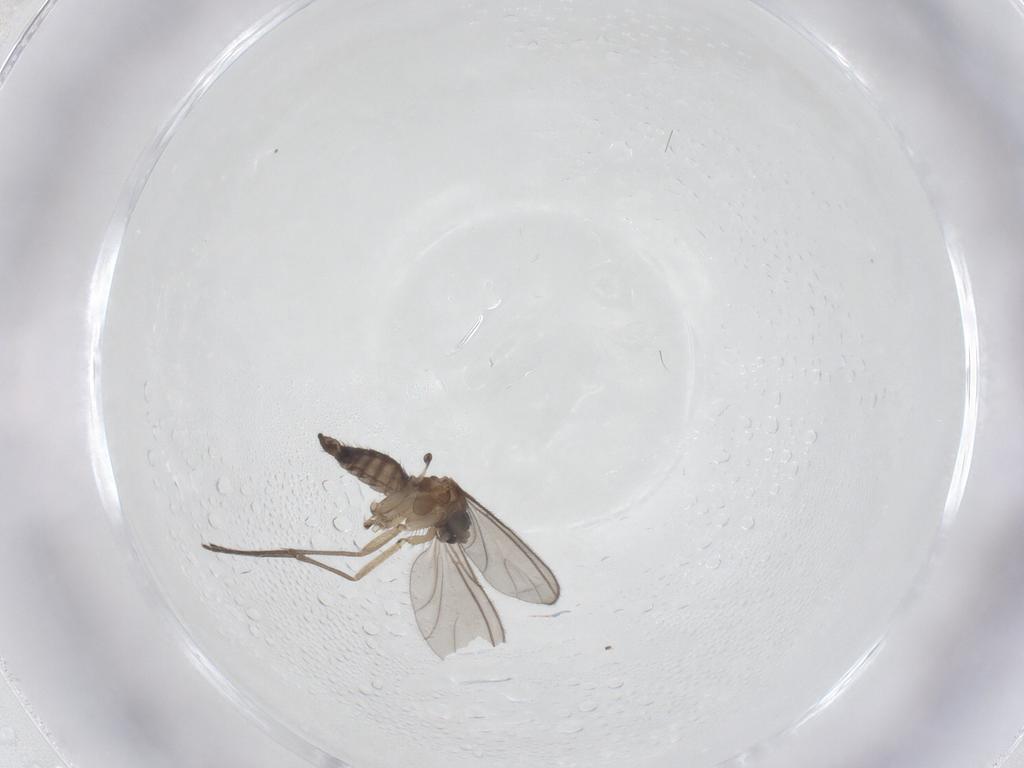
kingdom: Animalia
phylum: Arthropoda
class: Insecta
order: Diptera
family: Sciaridae
